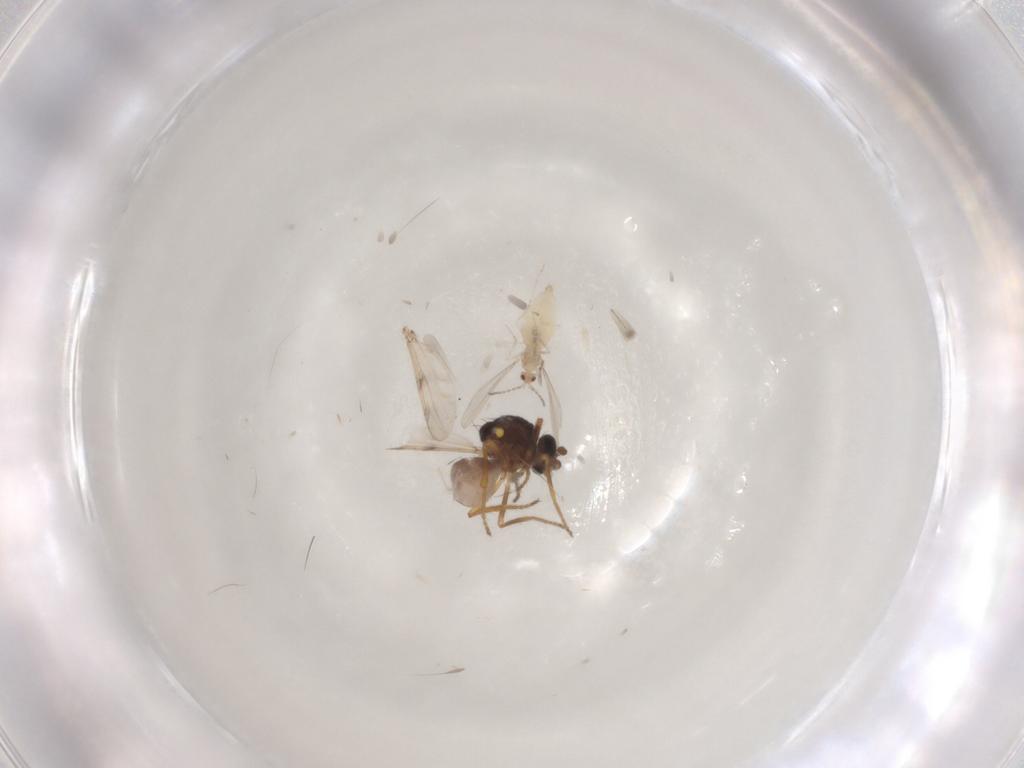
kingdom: Animalia
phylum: Arthropoda
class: Insecta
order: Diptera
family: Ceratopogonidae
